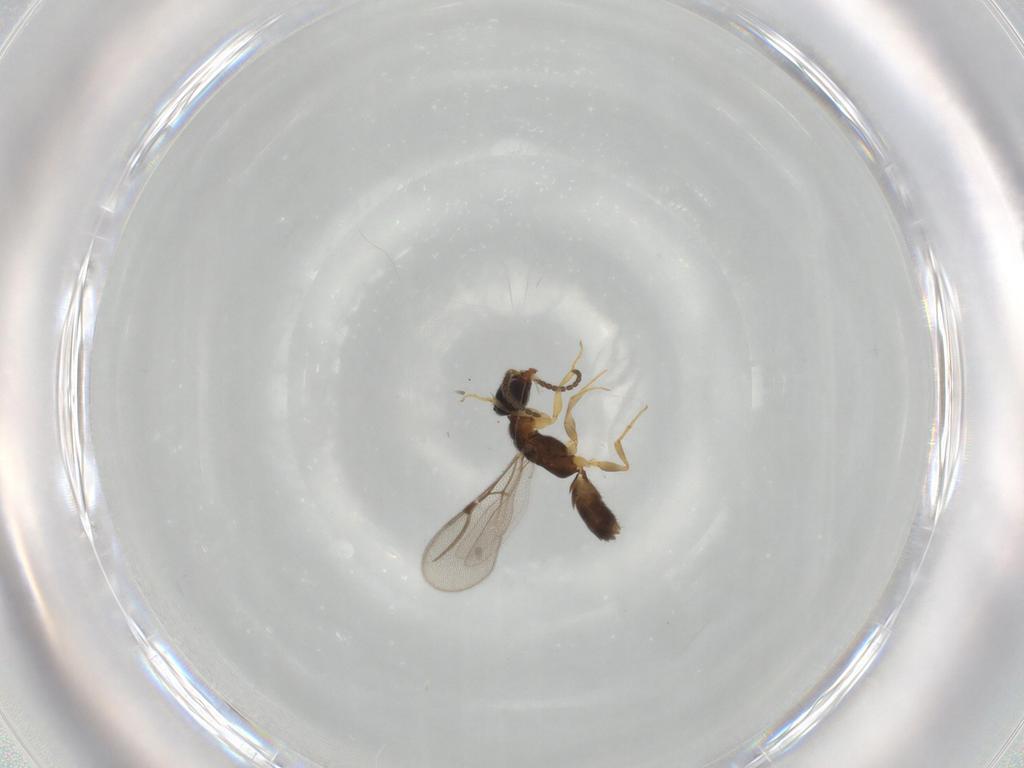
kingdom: Animalia
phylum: Arthropoda
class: Insecta
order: Hymenoptera
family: Bethylidae
